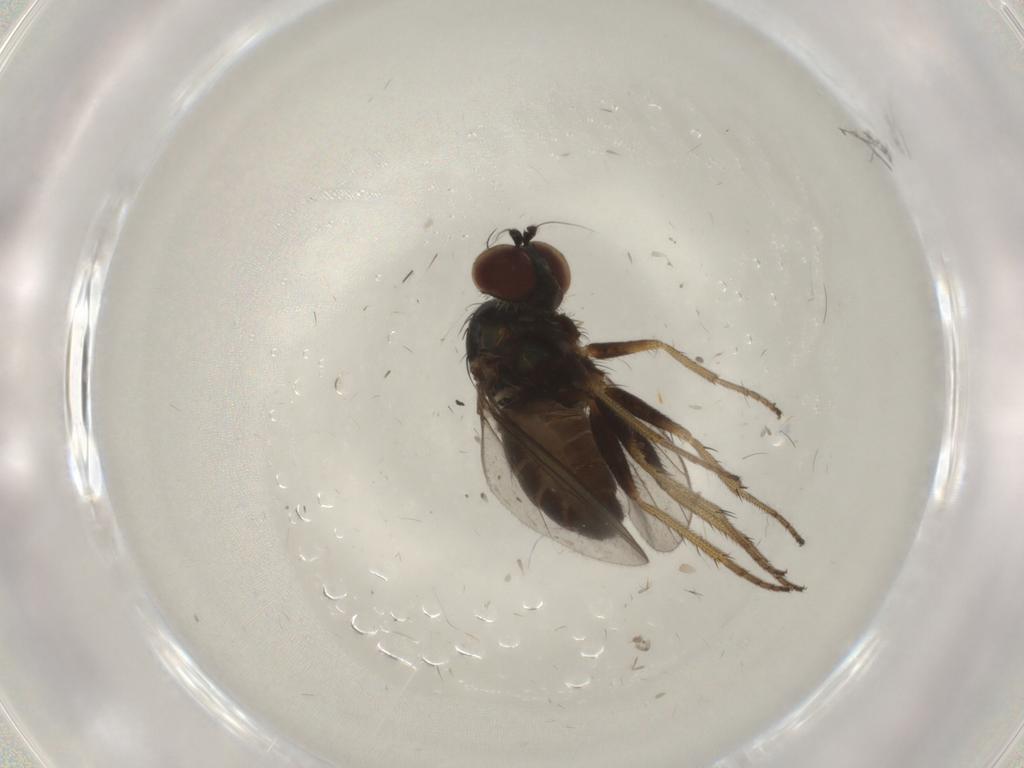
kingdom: Animalia
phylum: Arthropoda
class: Insecta
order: Diptera
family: Dolichopodidae
